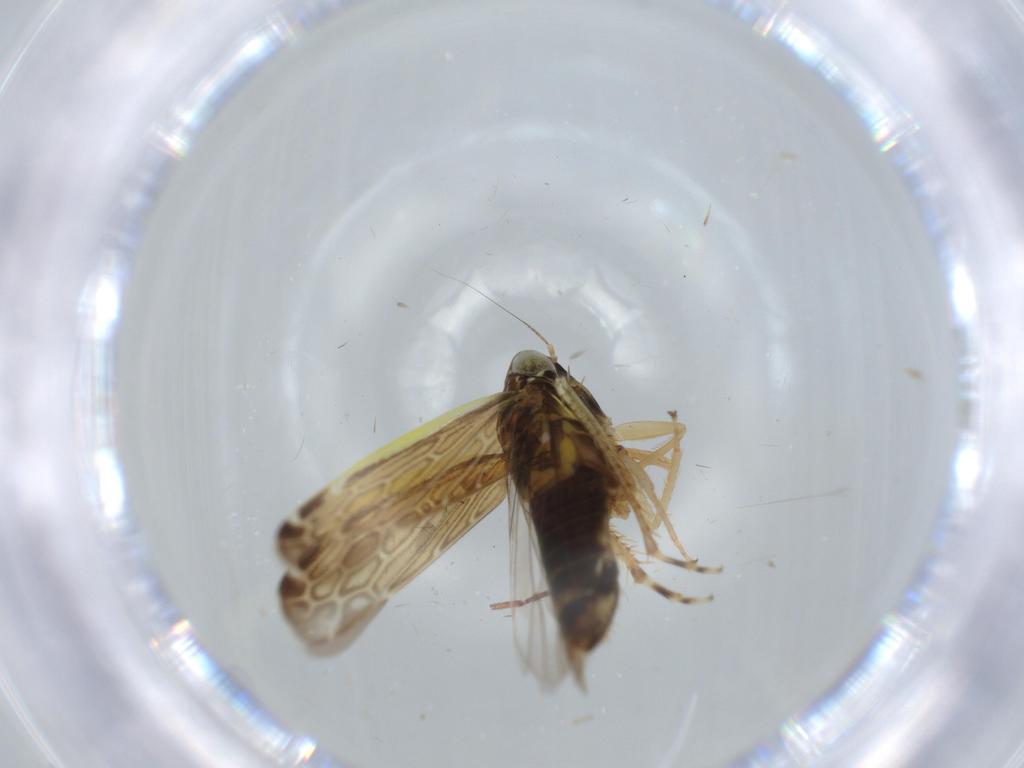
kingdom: Animalia
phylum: Arthropoda
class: Insecta
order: Hemiptera
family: Cicadellidae
